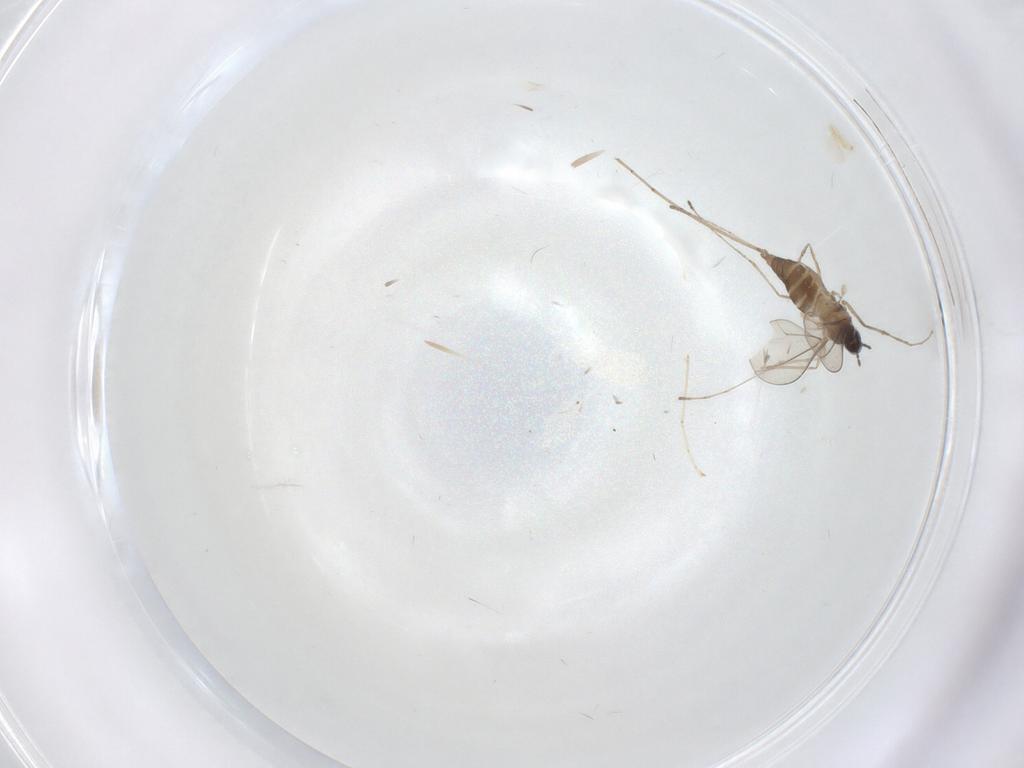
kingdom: Animalia
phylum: Arthropoda
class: Insecta
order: Diptera
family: Cecidomyiidae
